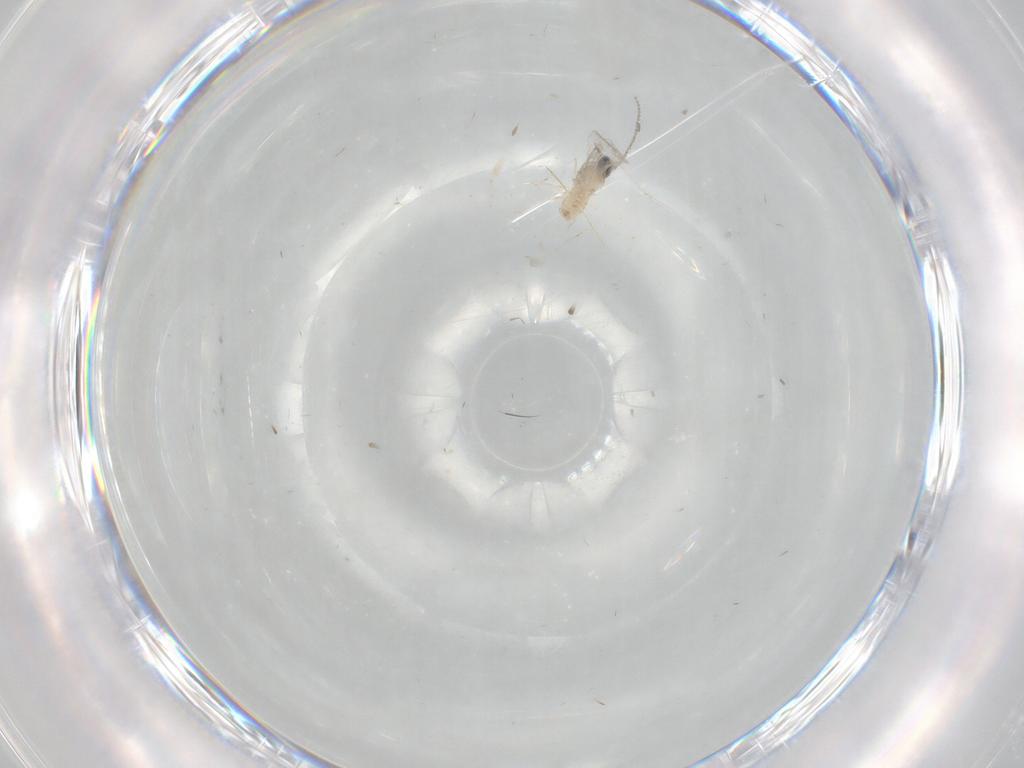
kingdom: Animalia
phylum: Arthropoda
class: Insecta
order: Diptera
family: Cecidomyiidae
